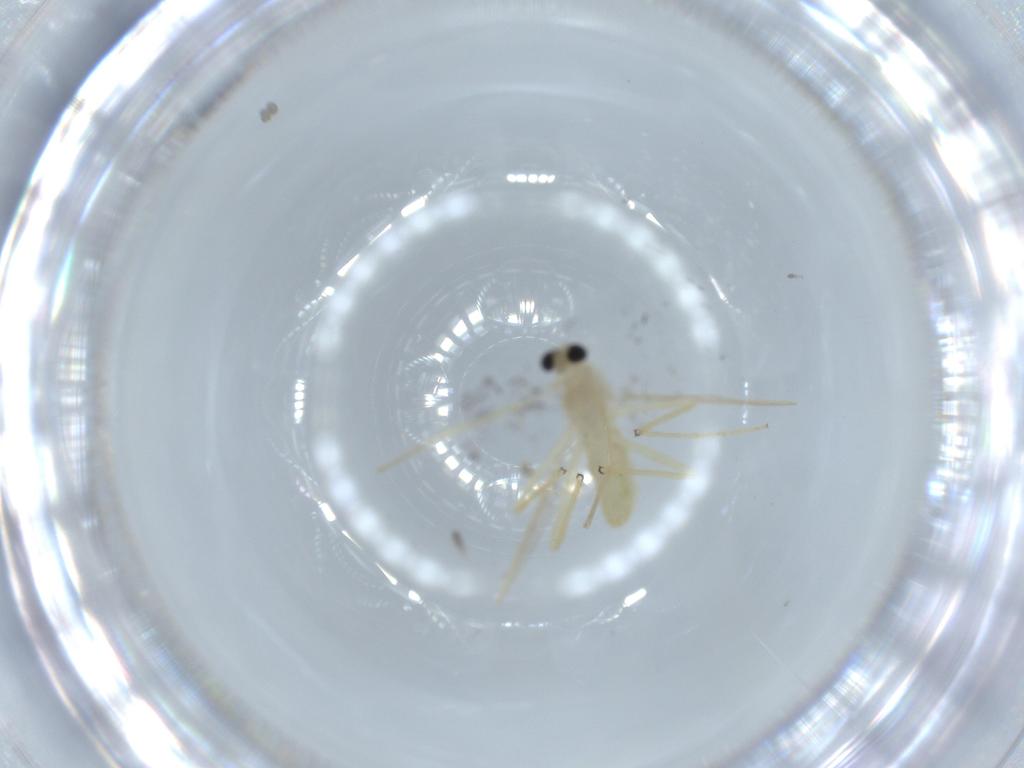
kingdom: Animalia
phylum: Arthropoda
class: Insecta
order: Diptera
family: Chironomidae
